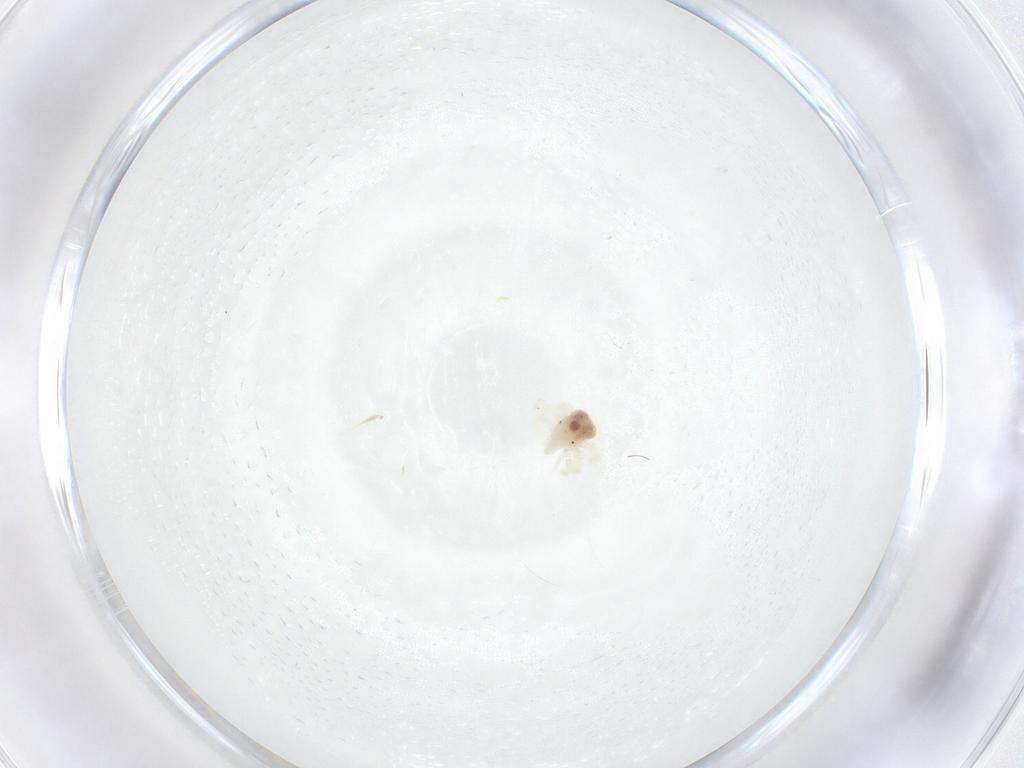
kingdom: Animalia
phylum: Arthropoda
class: Arachnida
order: Trombidiformes
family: Anystidae
